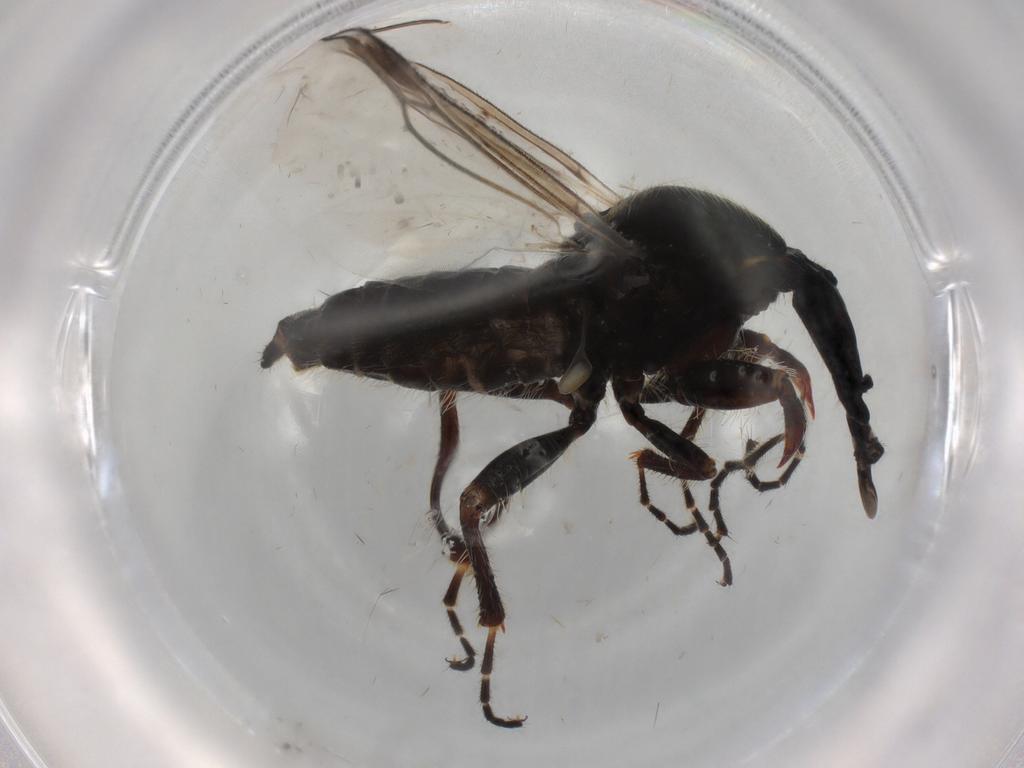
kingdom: Animalia
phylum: Arthropoda
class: Insecta
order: Diptera
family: Bibionidae
